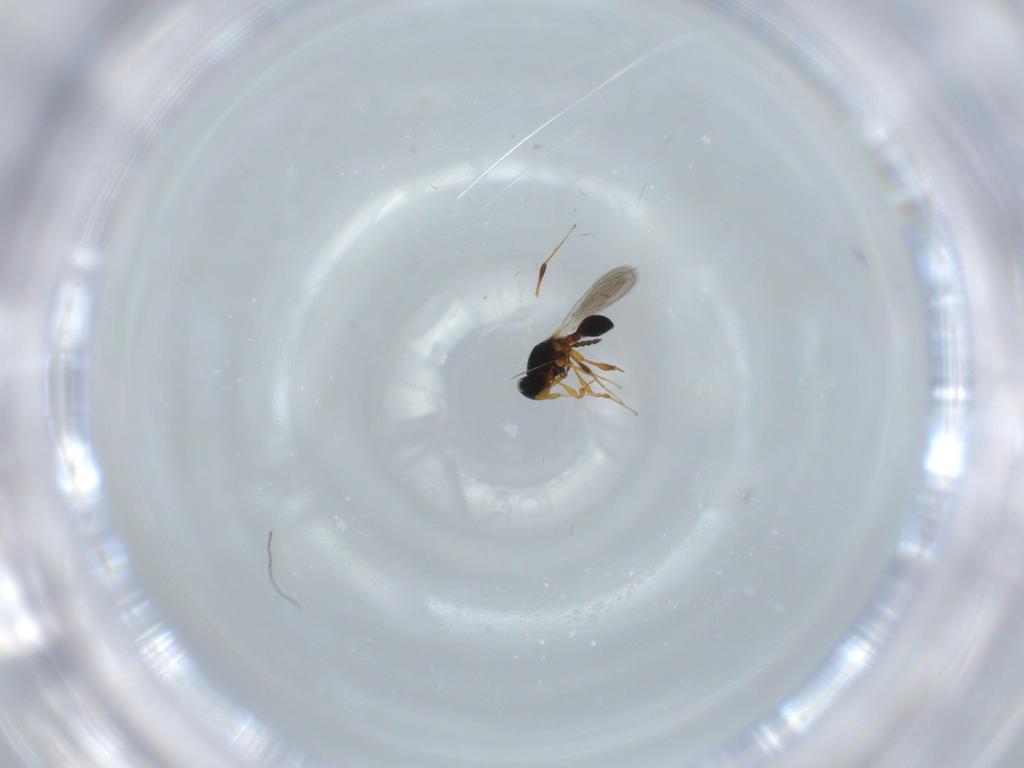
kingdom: Animalia
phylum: Arthropoda
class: Insecta
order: Hymenoptera
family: Platygastridae
